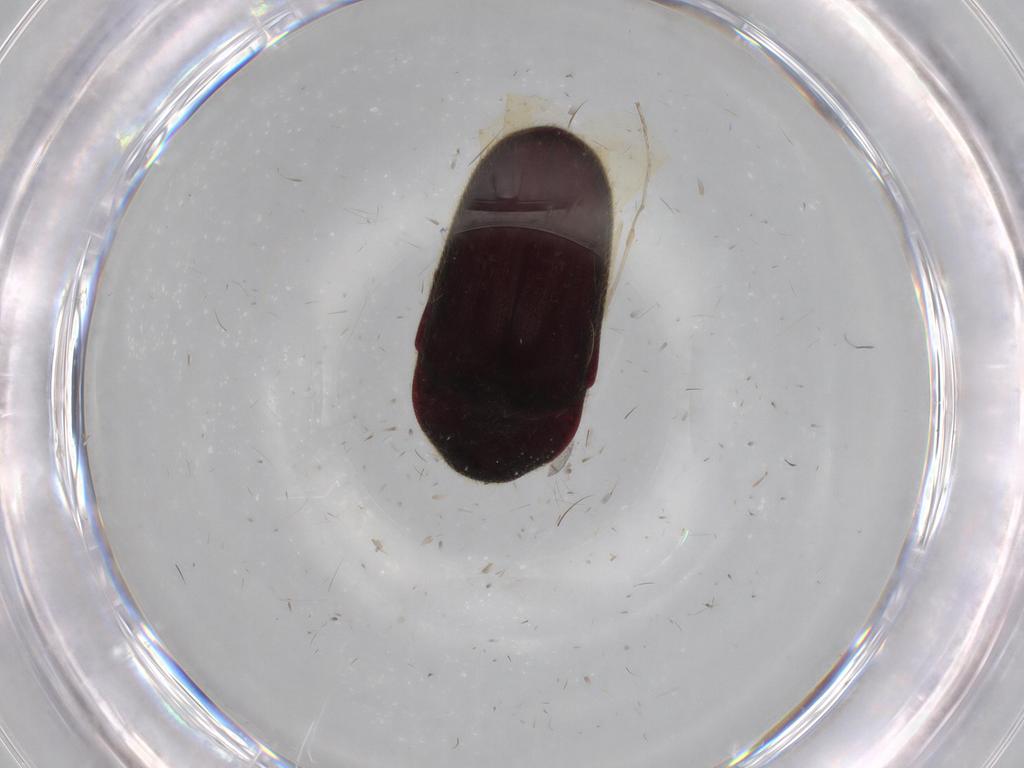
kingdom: Animalia
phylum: Arthropoda
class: Insecta
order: Coleoptera
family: Throscidae
